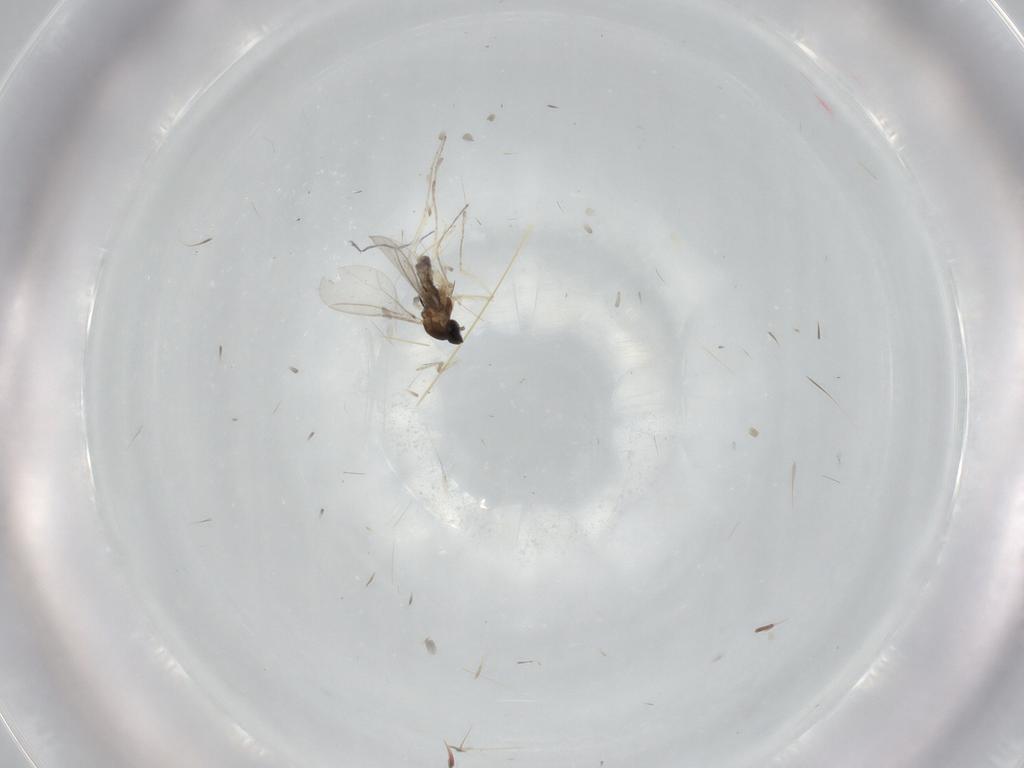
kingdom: Animalia
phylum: Arthropoda
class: Insecta
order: Diptera
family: Cecidomyiidae
